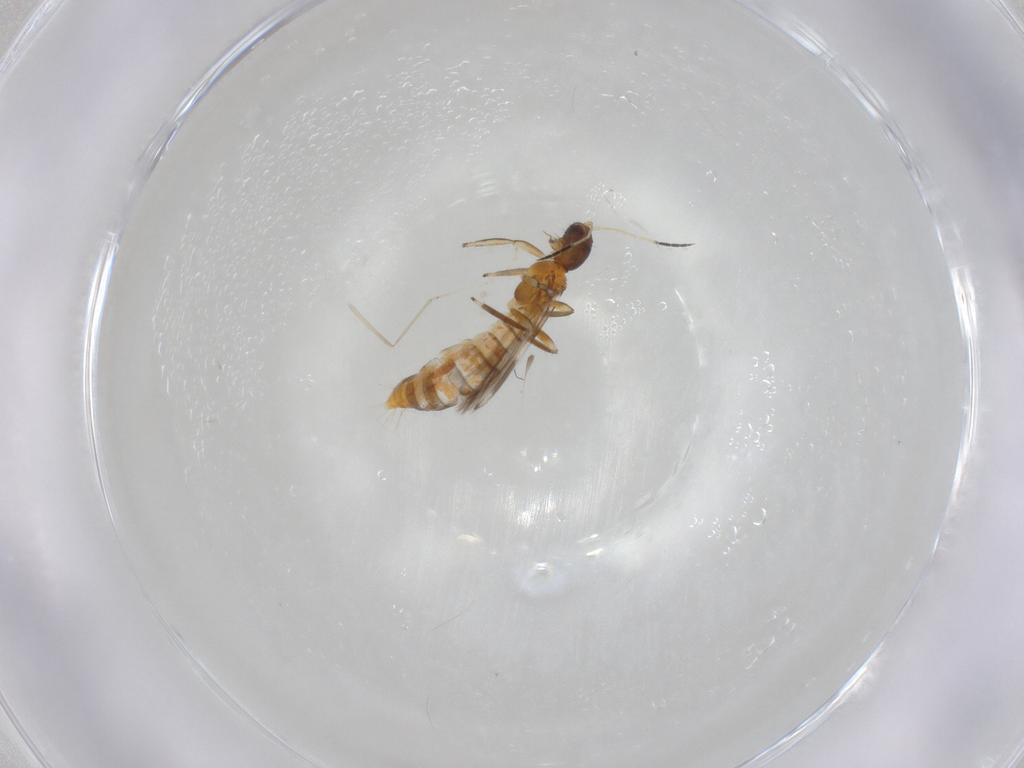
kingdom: Animalia
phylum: Arthropoda
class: Insecta
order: Thysanoptera
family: Aeolothripidae
